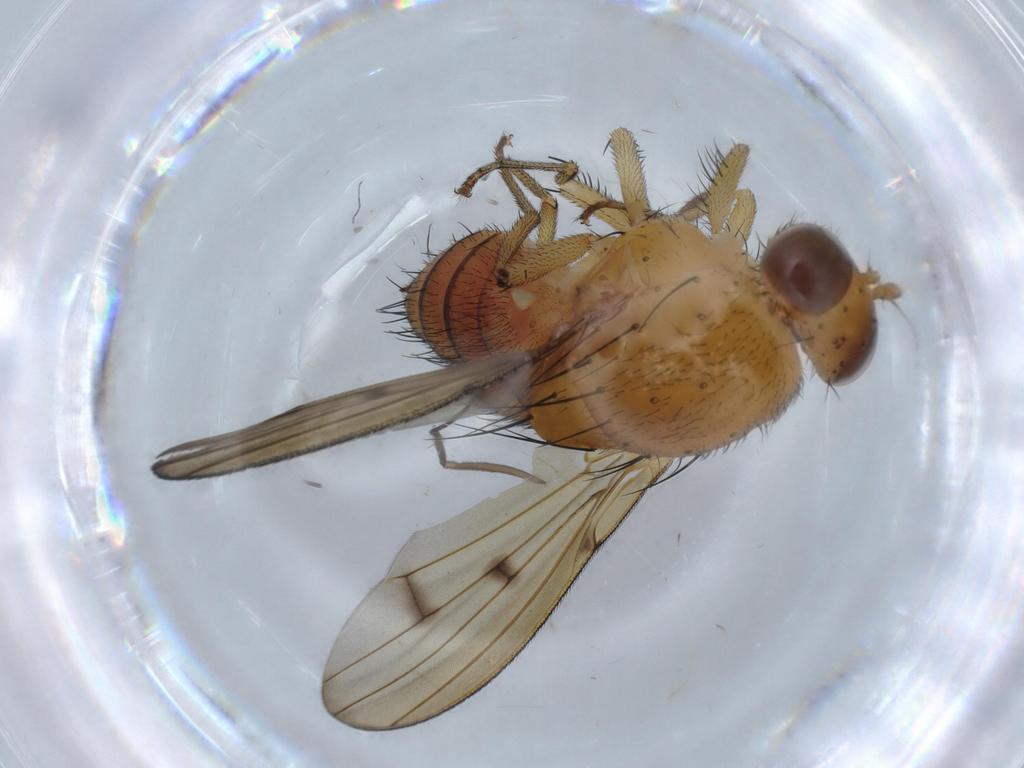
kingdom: Animalia
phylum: Arthropoda
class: Insecta
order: Diptera
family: Lauxaniidae
